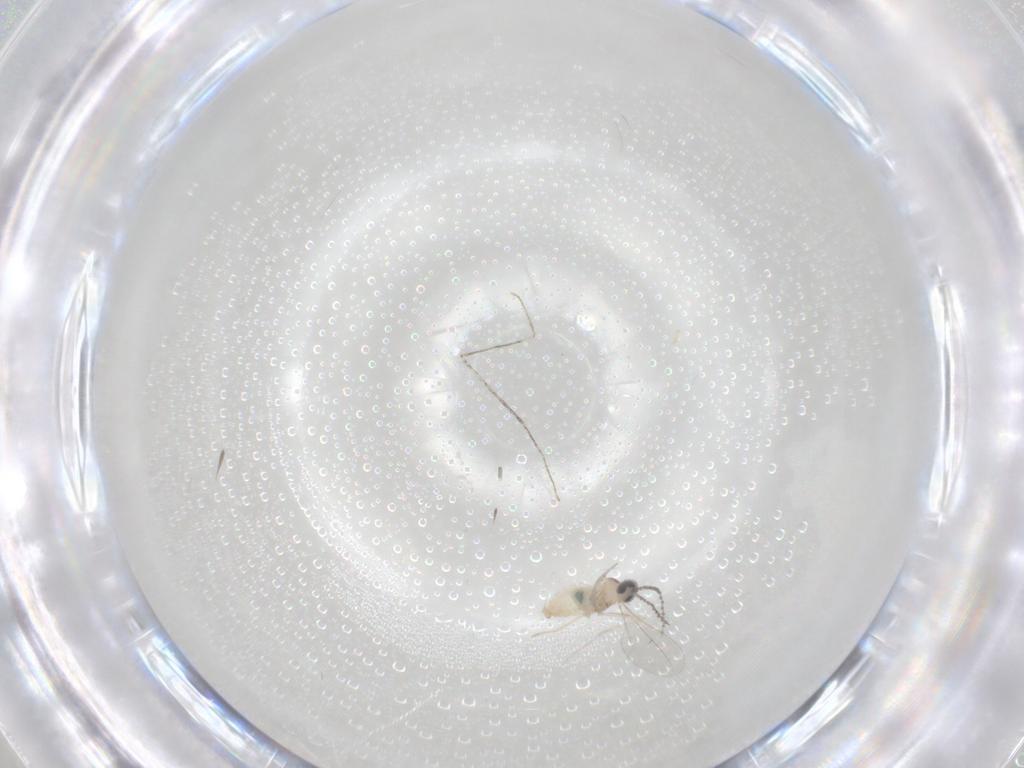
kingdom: Animalia
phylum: Arthropoda
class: Insecta
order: Diptera
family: Cecidomyiidae
